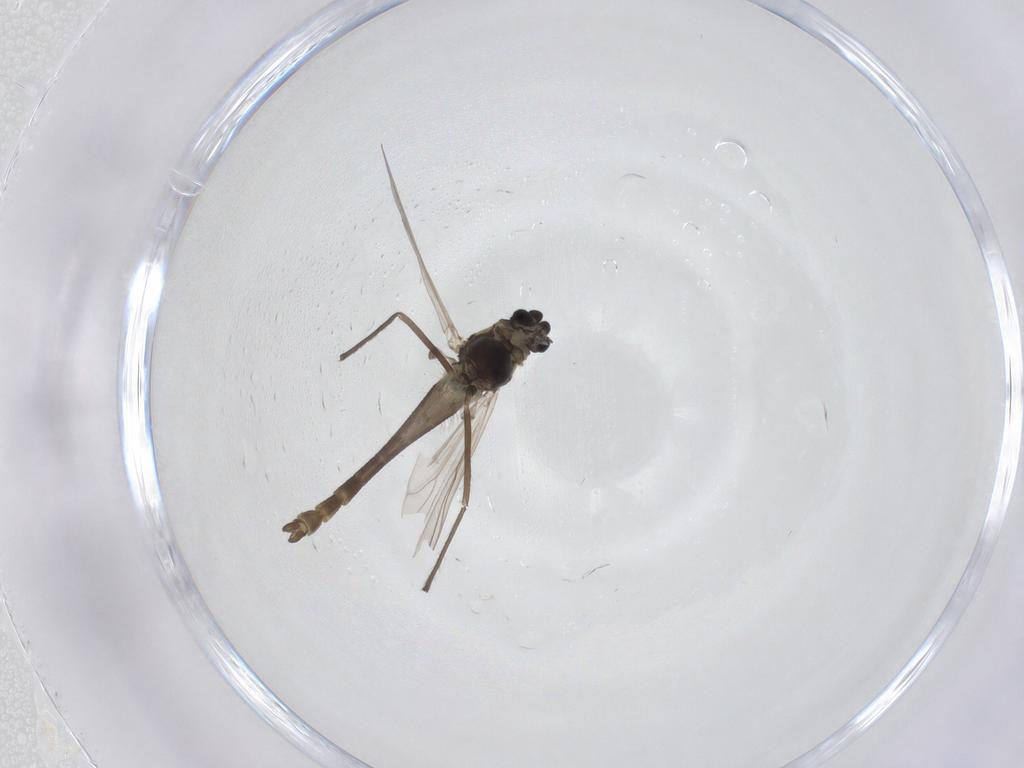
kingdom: Animalia
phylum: Arthropoda
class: Insecta
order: Diptera
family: Chironomidae
